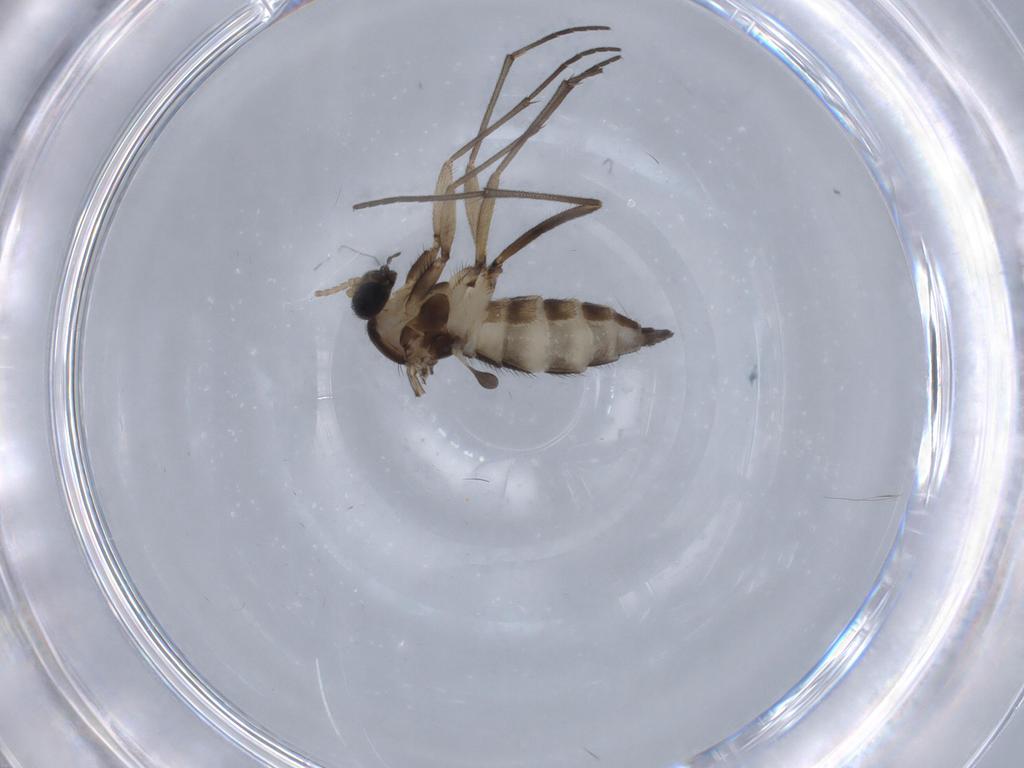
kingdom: Animalia
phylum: Arthropoda
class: Insecta
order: Diptera
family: Sciaridae
